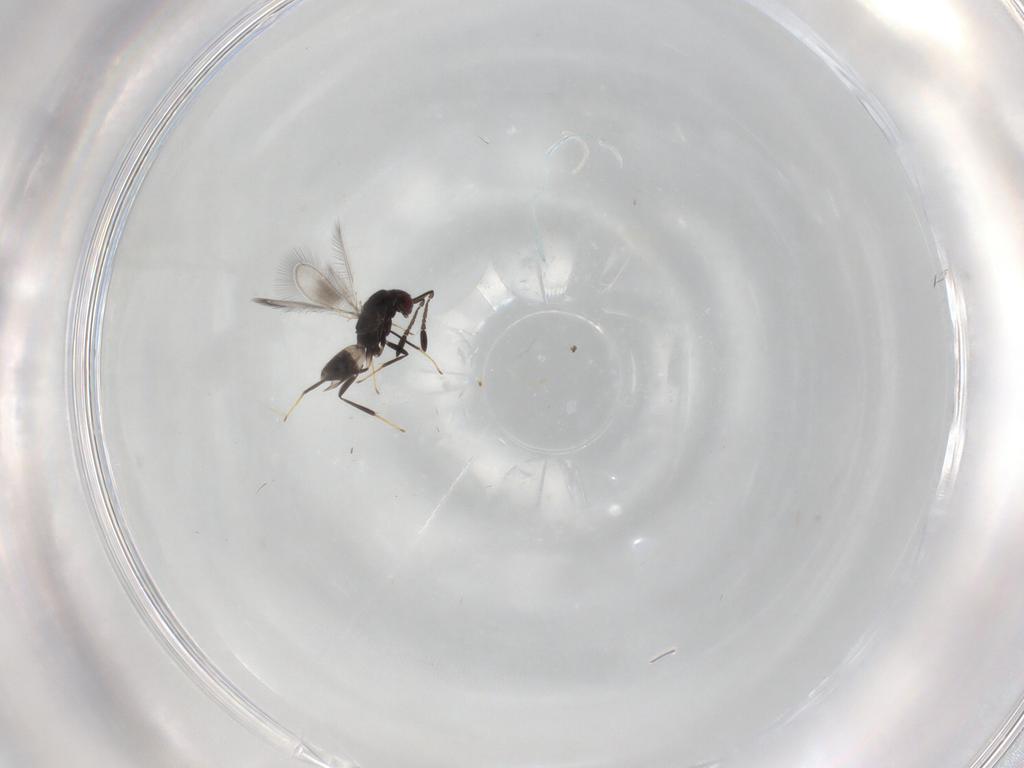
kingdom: Animalia
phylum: Arthropoda
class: Insecta
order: Hymenoptera
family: Mymaridae
